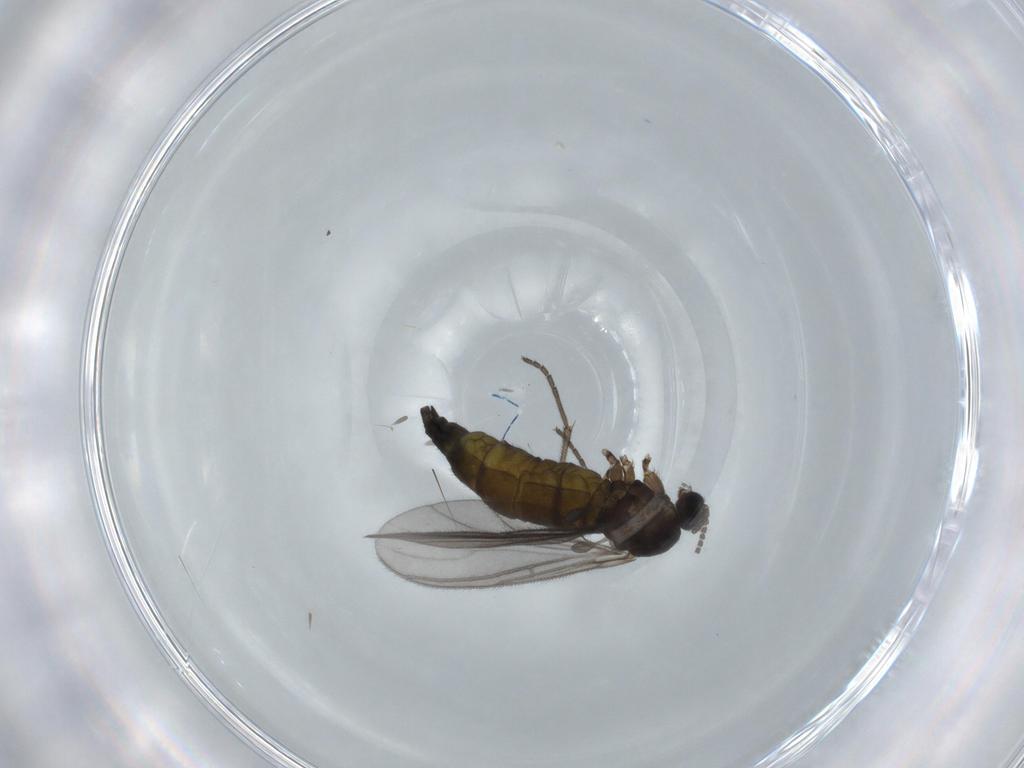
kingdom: Animalia
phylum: Arthropoda
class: Insecta
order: Diptera
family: Sciaridae
